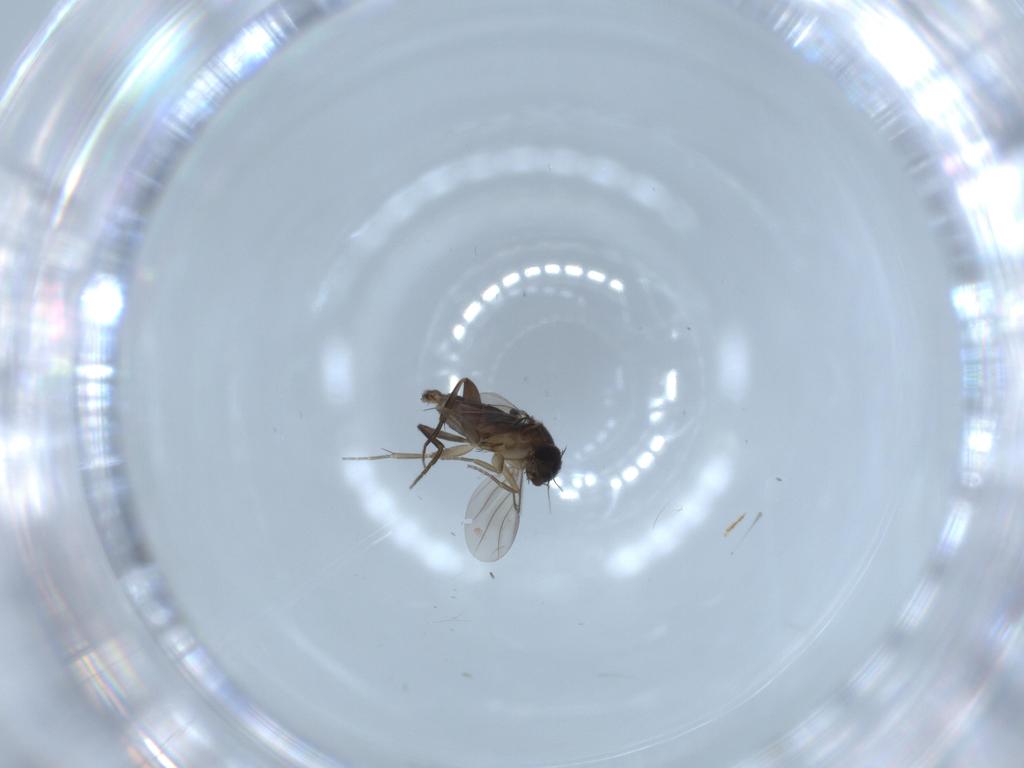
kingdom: Animalia
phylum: Arthropoda
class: Insecta
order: Diptera
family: Phoridae
